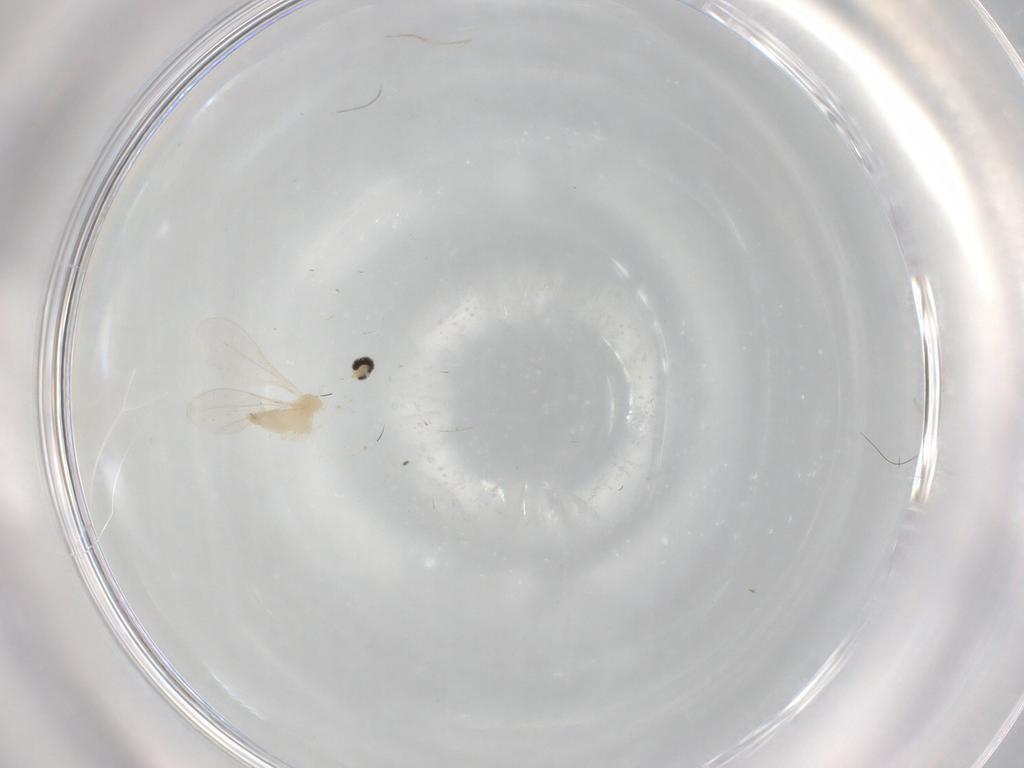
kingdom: Animalia
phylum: Arthropoda
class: Insecta
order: Diptera
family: Cecidomyiidae
